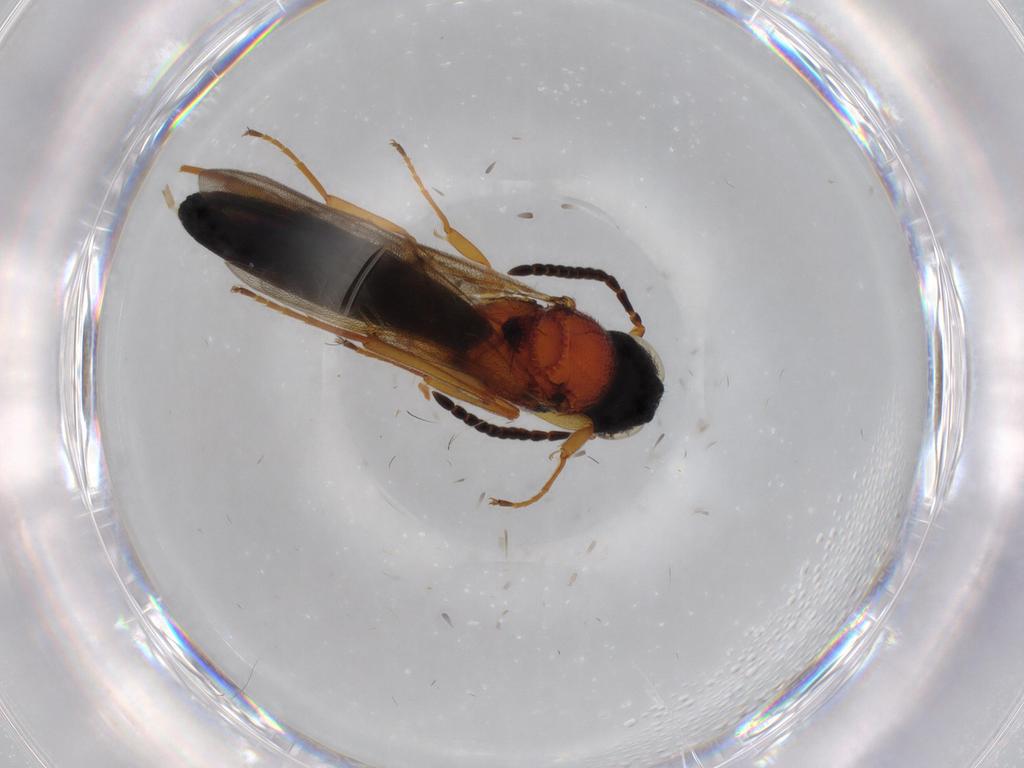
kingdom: Animalia
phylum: Arthropoda
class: Insecta
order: Hymenoptera
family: Scelionidae
